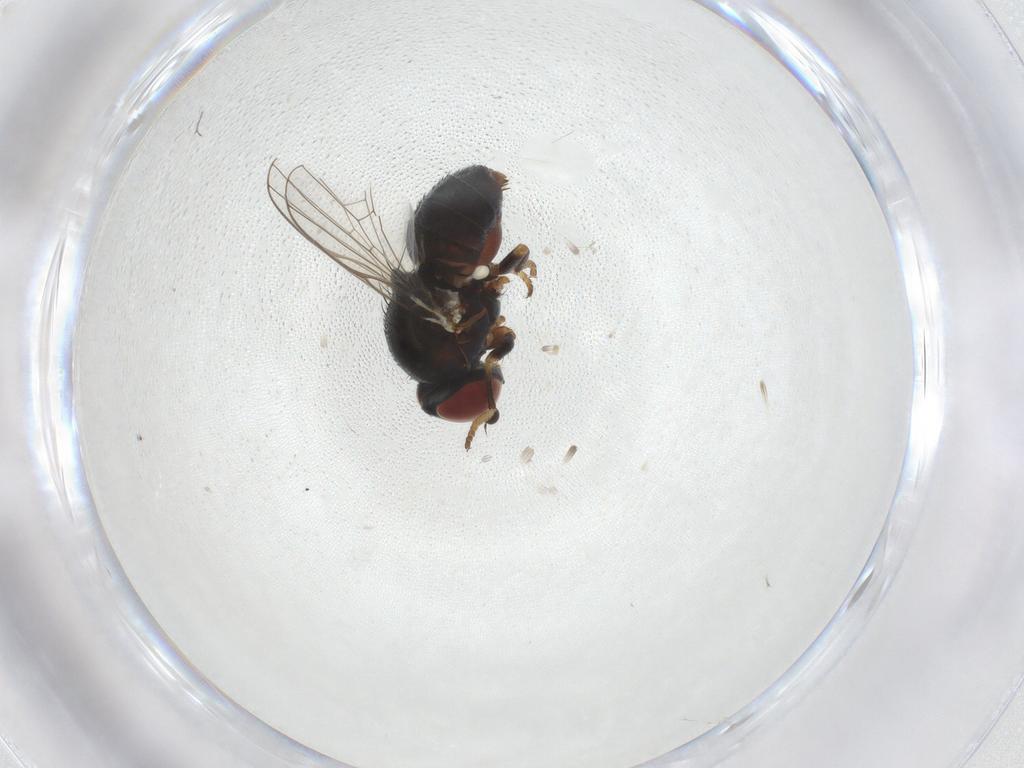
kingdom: Animalia
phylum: Arthropoda
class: Insecta
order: Diptera
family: Chamaemyiidae
